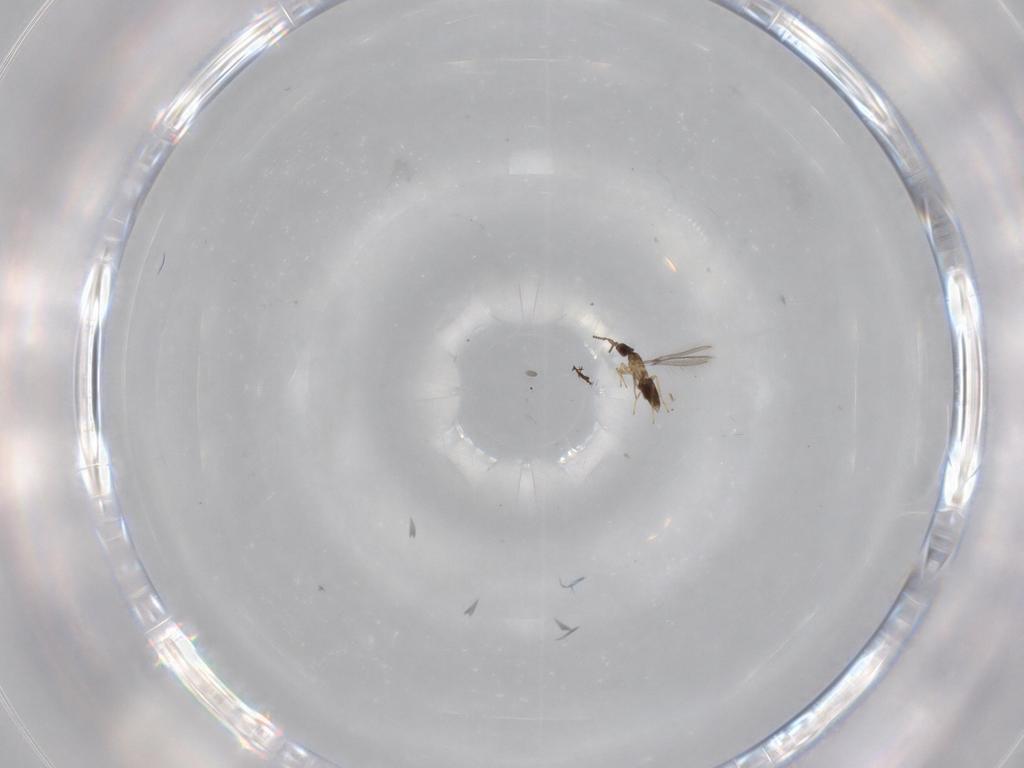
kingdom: Animalia
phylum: Arthropoda
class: Insecta
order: Hymenoptera
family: Mymaridae
